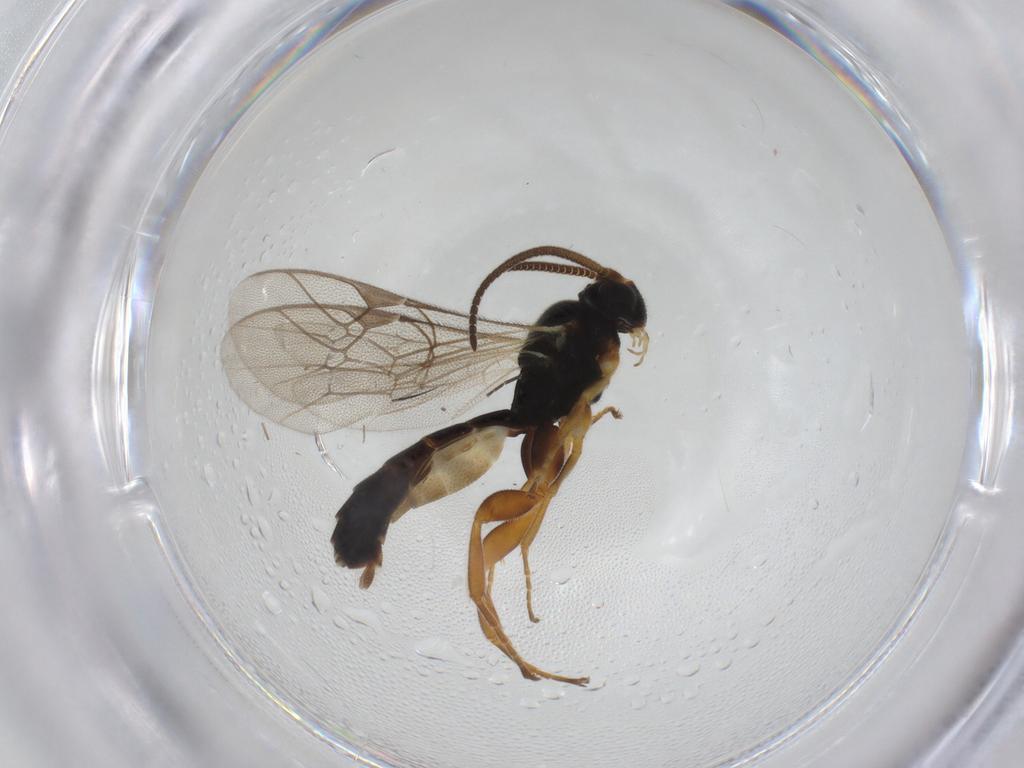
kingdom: Animalia
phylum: Arthropoda
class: Insecta
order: Hymenoptera
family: Ichneumonidae
